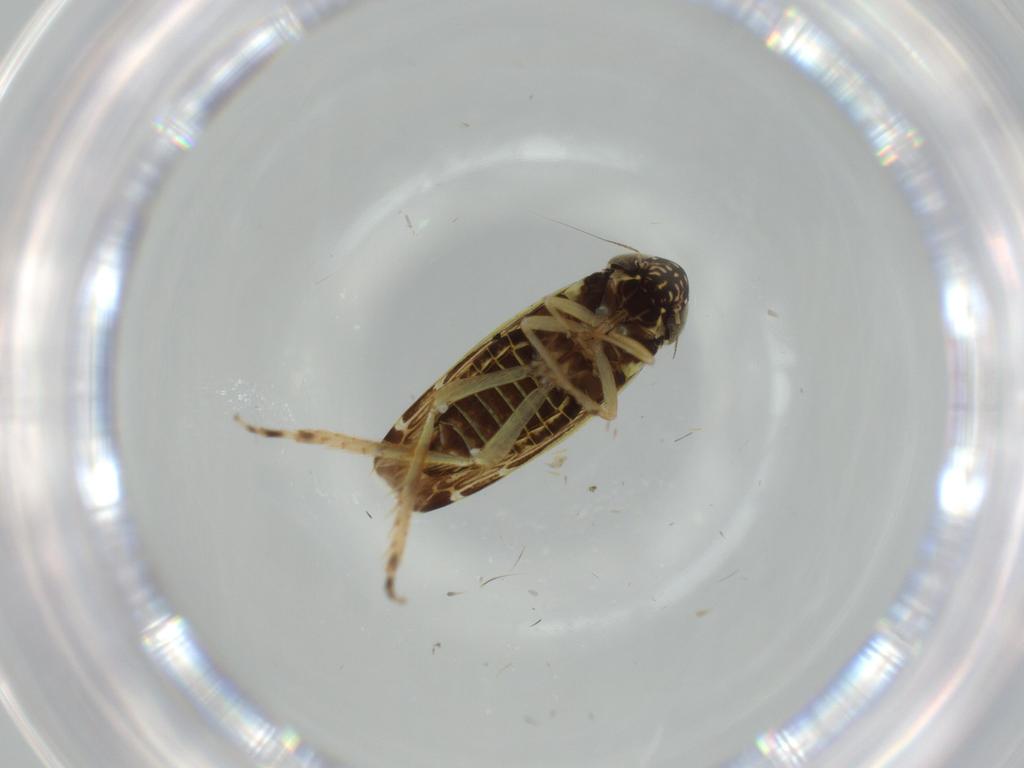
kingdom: Animalia
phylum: Arthropoda
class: Insecta
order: Hemiptera
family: Cicadellidae
